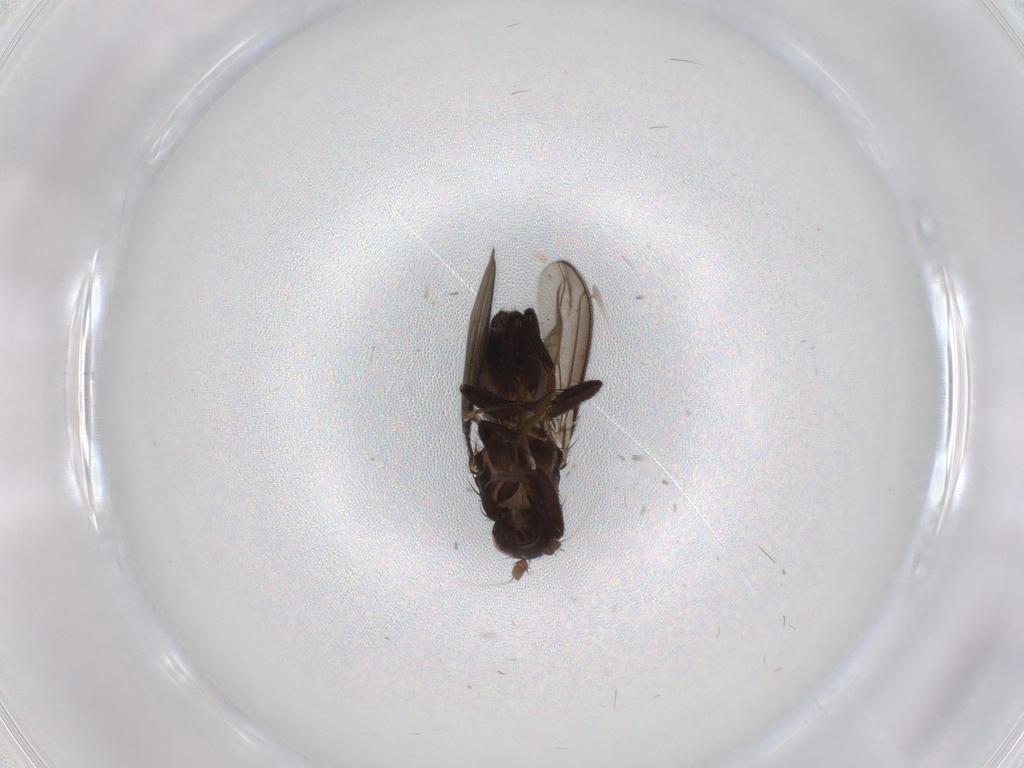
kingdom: Animalia
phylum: Arthropoda
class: Insecta
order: Diptera
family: Sphaeroceridae
